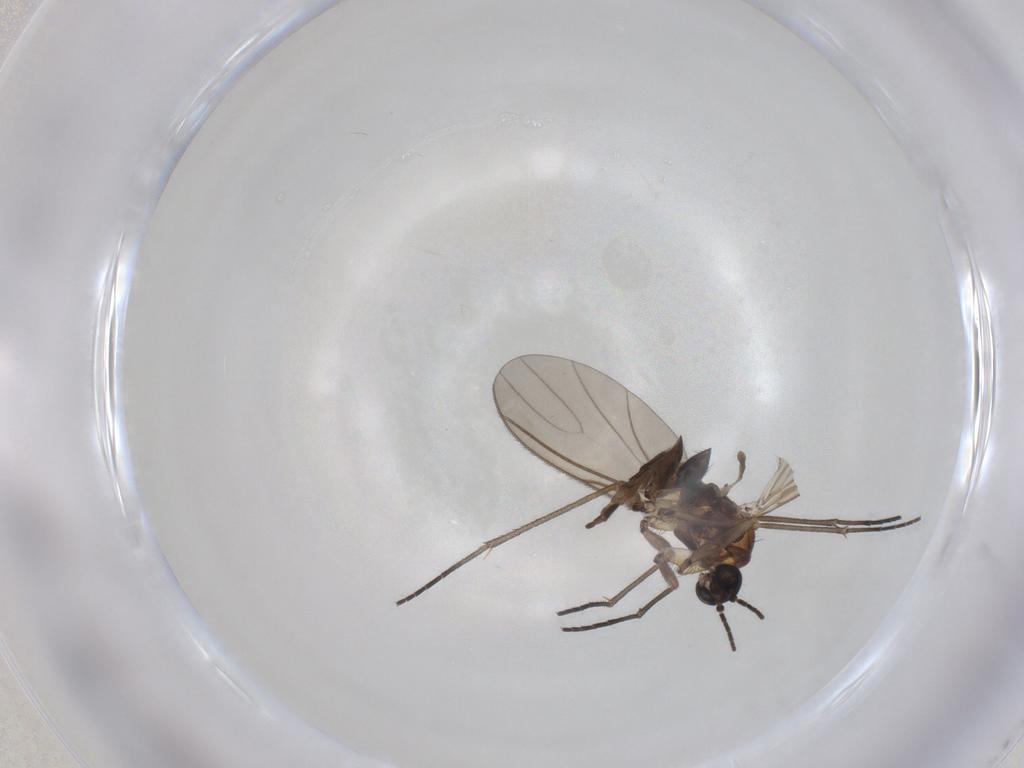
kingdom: Animalia
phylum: Arthropoda
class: Insecta
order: Diptera
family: Sciaridae
